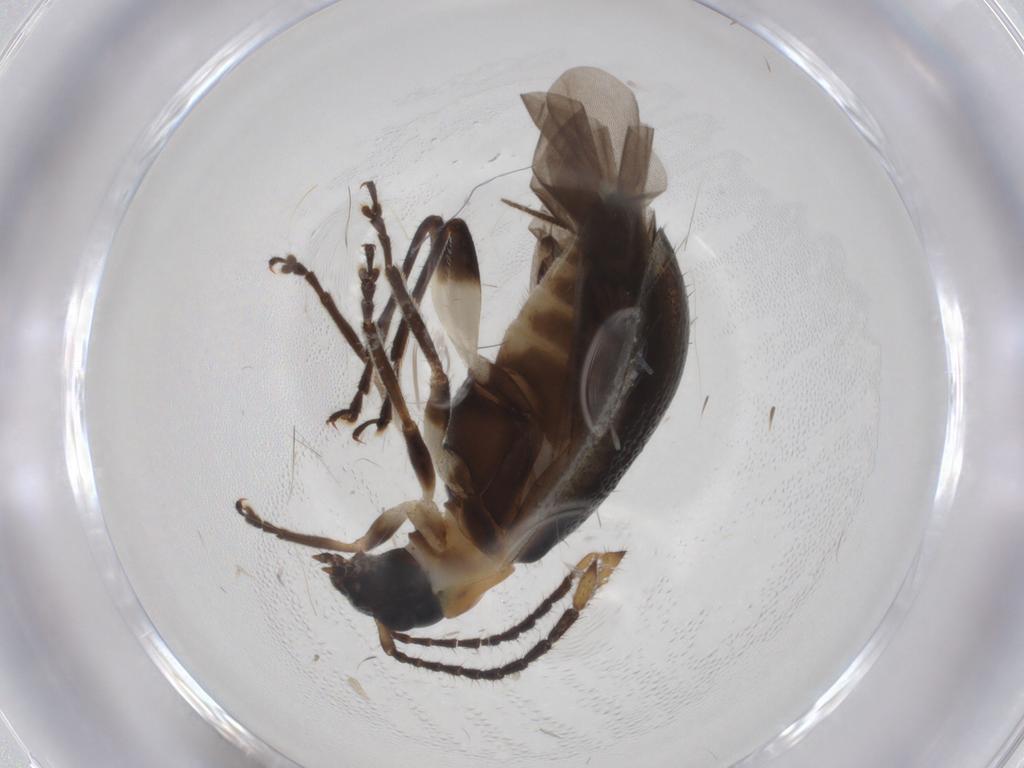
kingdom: Animalia
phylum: Arthropoda
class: Insecta
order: Coleoptera
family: Chrysomelidae
